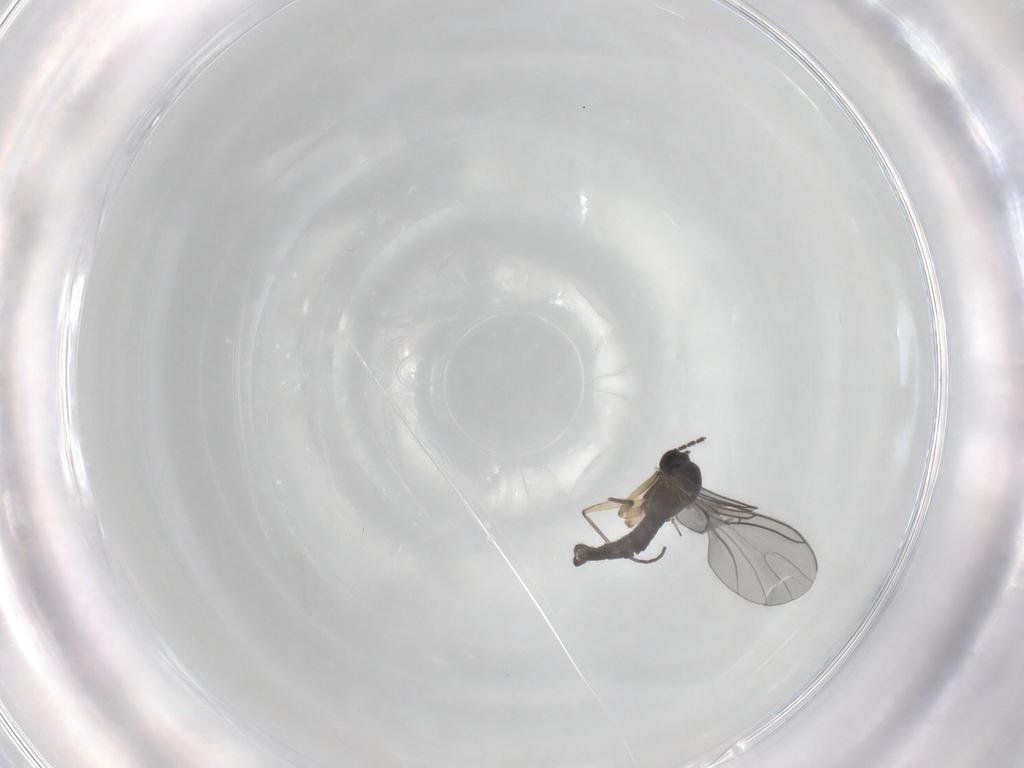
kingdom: Animalia
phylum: Arthropoda
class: Insecta
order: Diptera
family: Sciaridae
